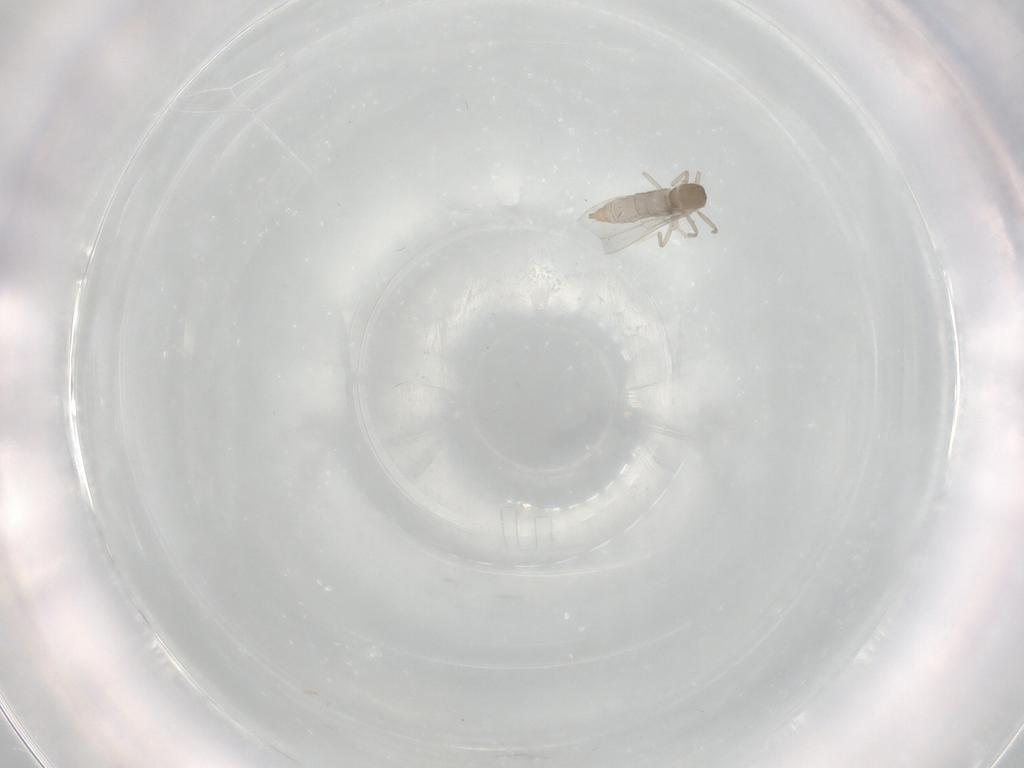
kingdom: Animalia
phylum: Arthropoda
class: Insecta
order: Diptera
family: Cecidomyiidae
